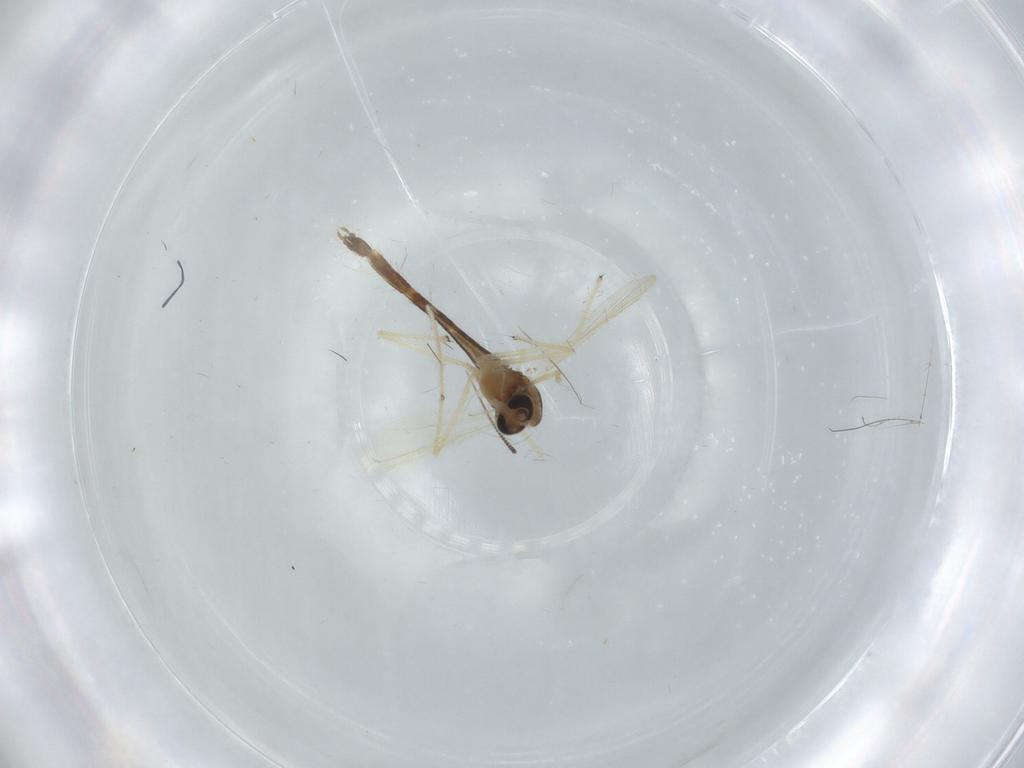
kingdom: Animalia
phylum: Arthropoda
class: Insecta
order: Diptera
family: Chironomidae
